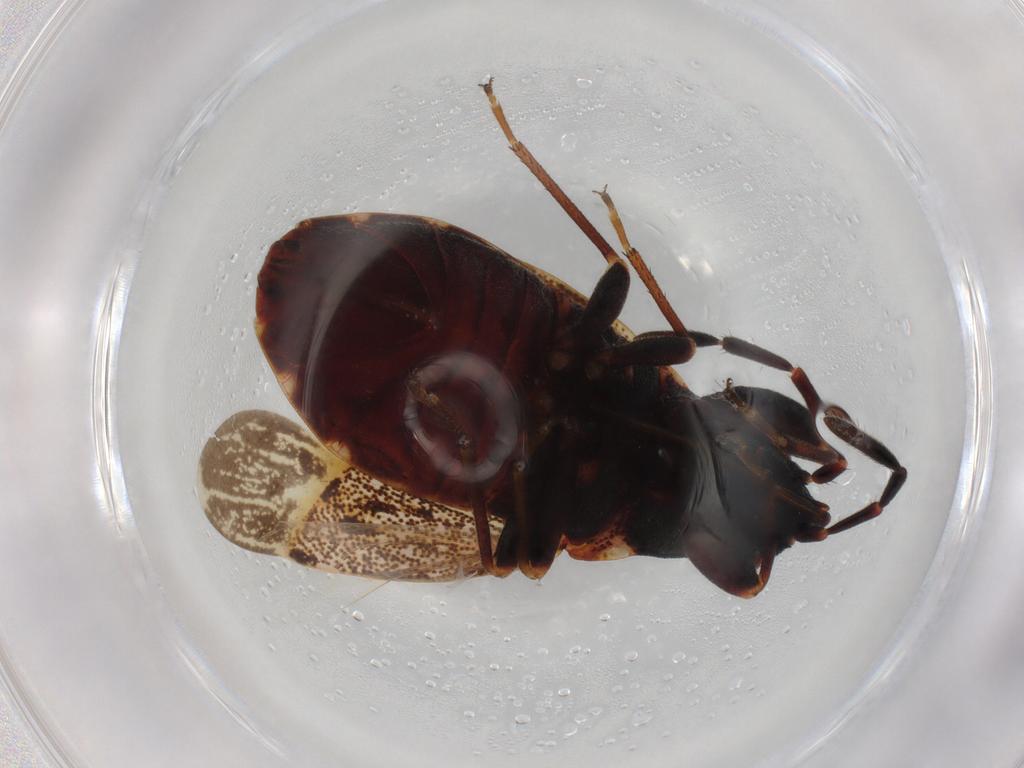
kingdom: Animalia
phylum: Arthropoda
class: Insecta
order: Hemiptera
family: Rhyparochromidae
